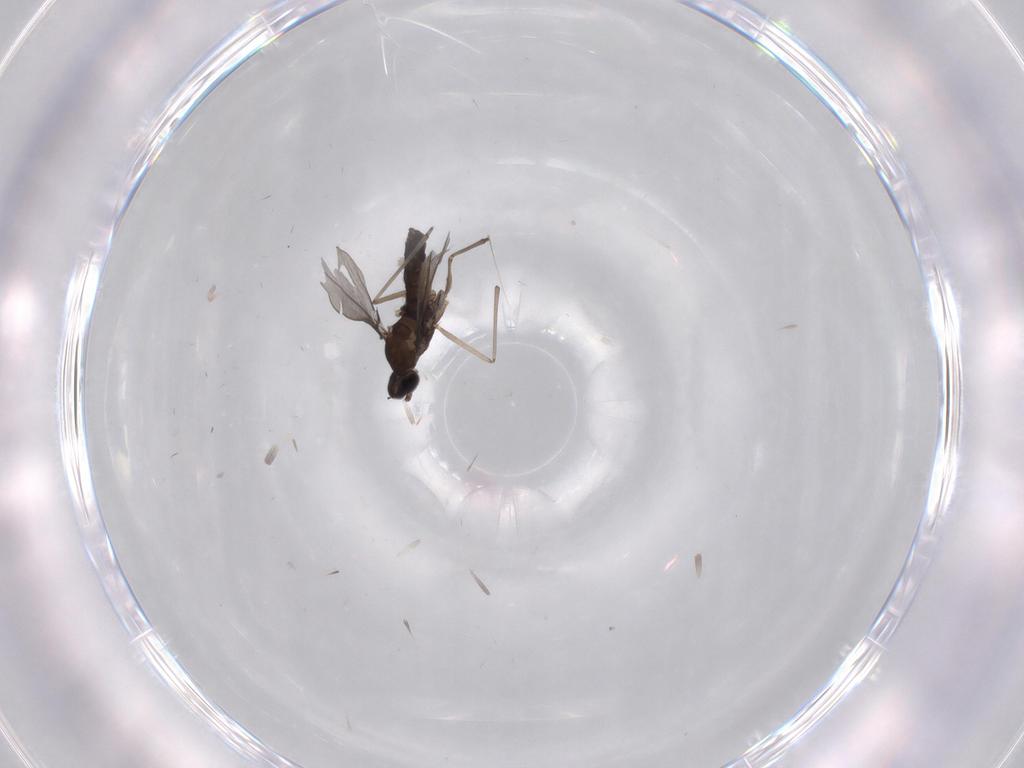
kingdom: Animalia
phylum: Arthropoda
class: Insecta
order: Diptera
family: Cecidomyiidae
